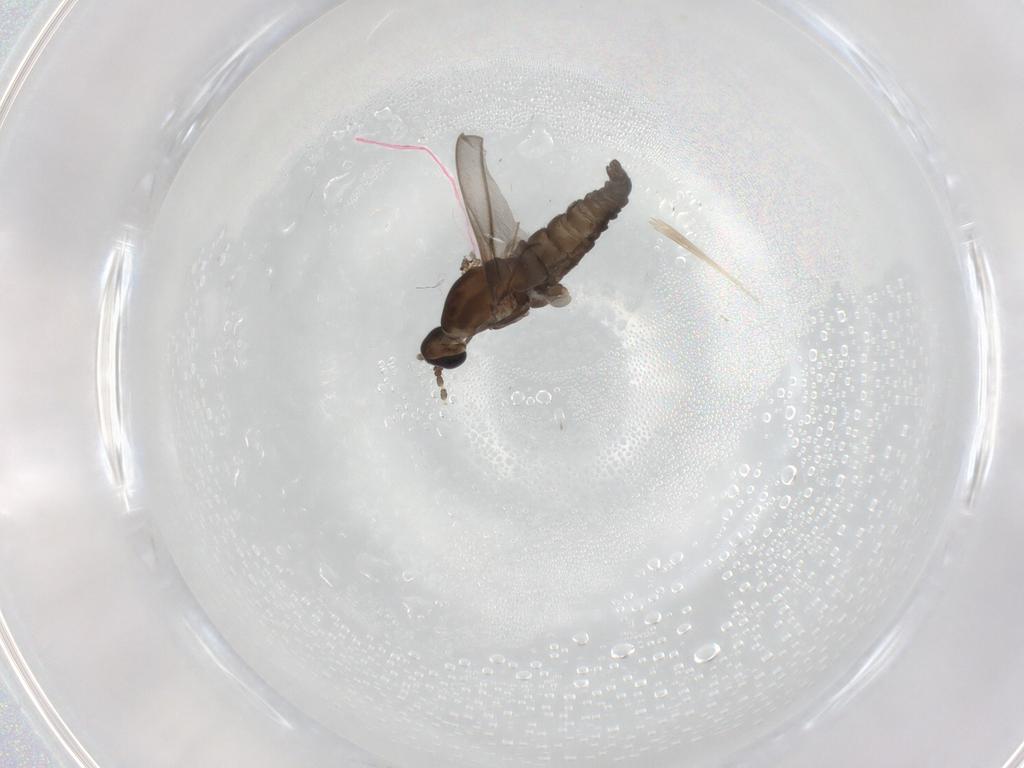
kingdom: Animalia
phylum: Arthropoda
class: Insecta
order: Diptera
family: Cecidomyiidae
